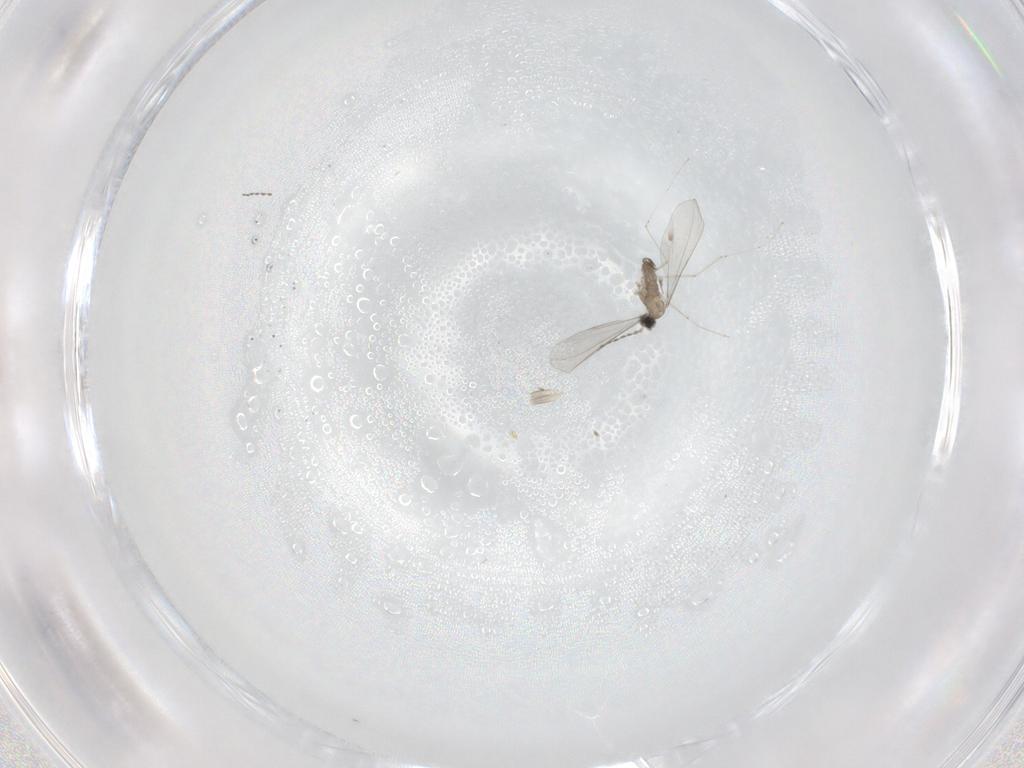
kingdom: Animalia
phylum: Arthropoda
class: Insecta
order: Diptera
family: Cecidomyiidae
